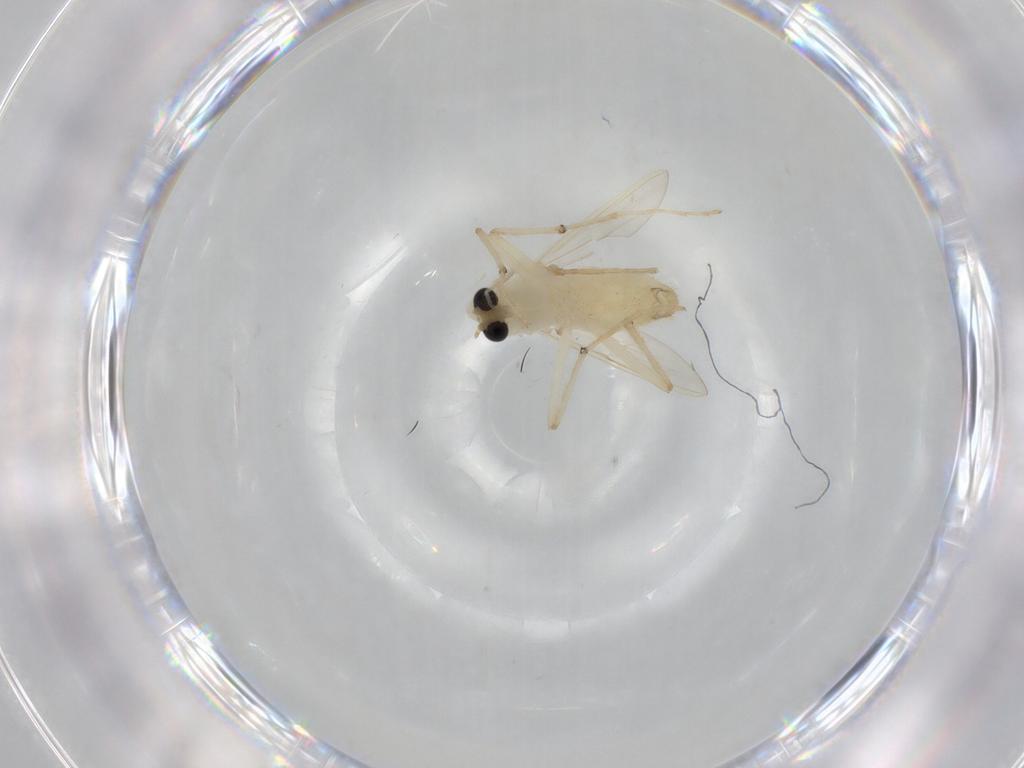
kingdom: Animalia
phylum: Arthropoda
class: Insecta
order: Diptera
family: Chironomidae
